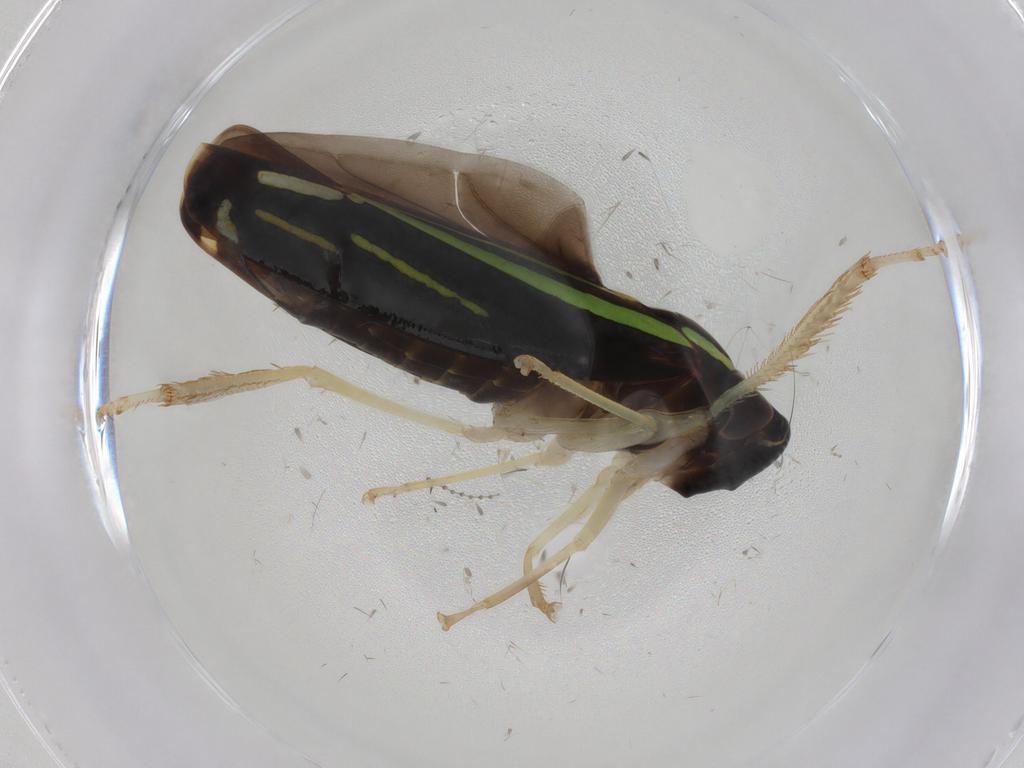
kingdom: Animalia
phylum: Arthropoda
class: Insecta
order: Hemiptera
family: Cicadellidae
